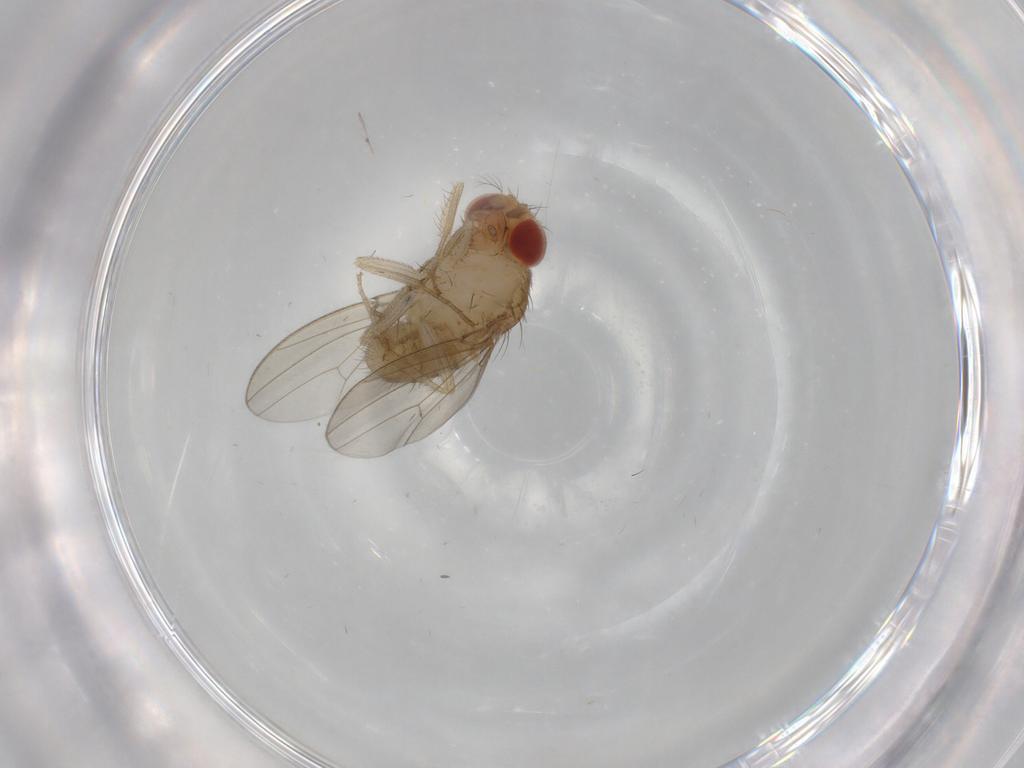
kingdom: Animalia
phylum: Arthropoda
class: Insecta
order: Diptera
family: Drosophilidae
